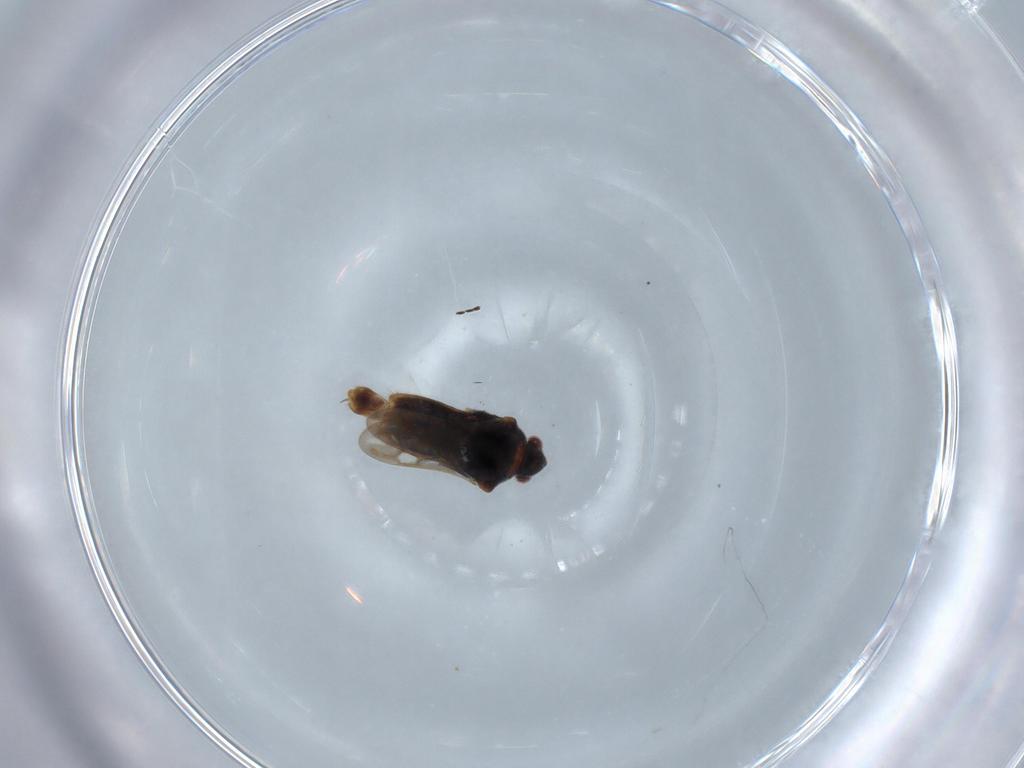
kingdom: Animalia
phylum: Arthropoda
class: Insecta
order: Hemiptera
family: Veliidae
